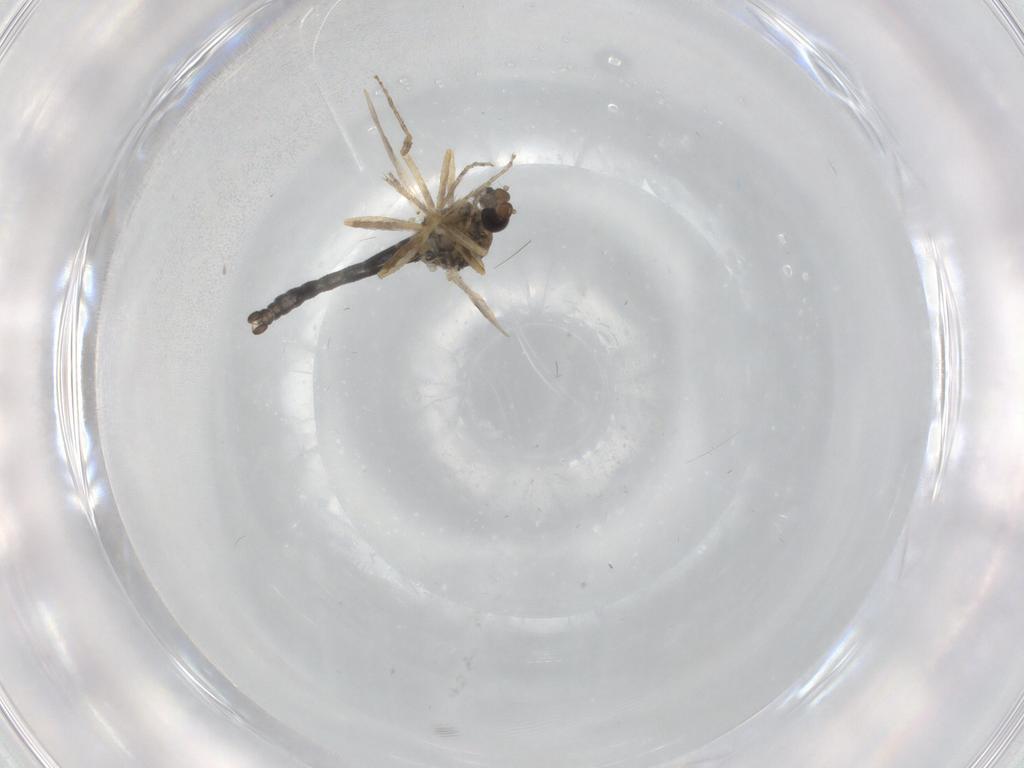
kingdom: Animalia
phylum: Arthropoda
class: Insecta
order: Diptera
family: Ceratopogonidae
